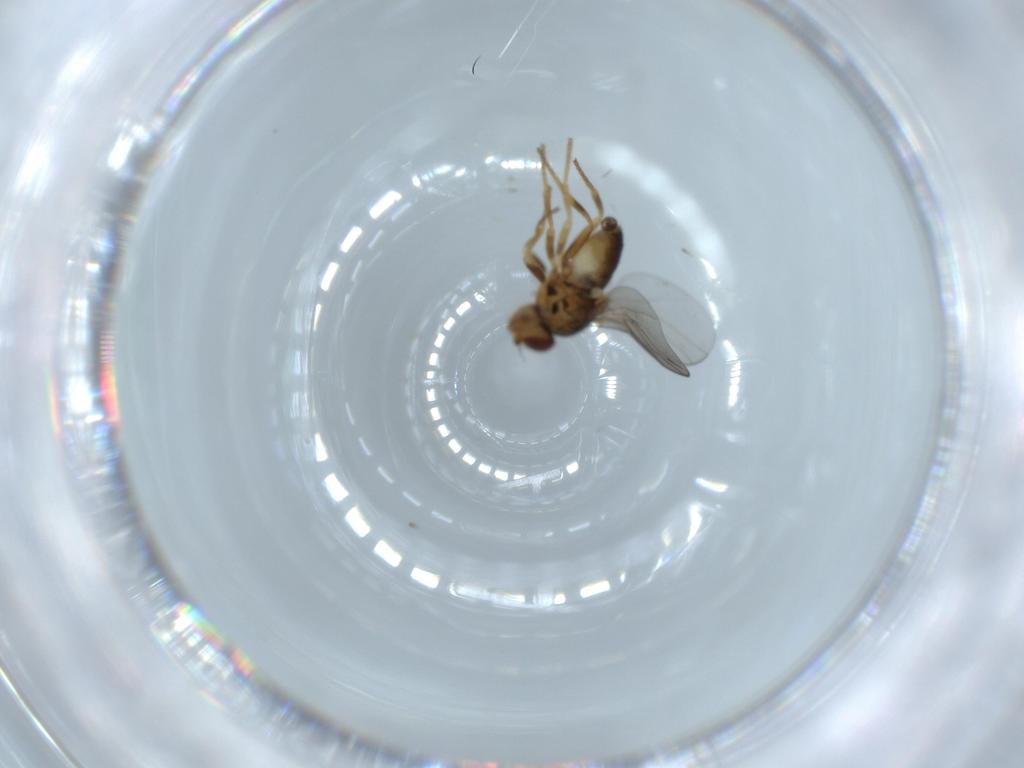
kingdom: Animalia
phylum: Arthropoda
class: Insecta
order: Diptera
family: Chloropidae
